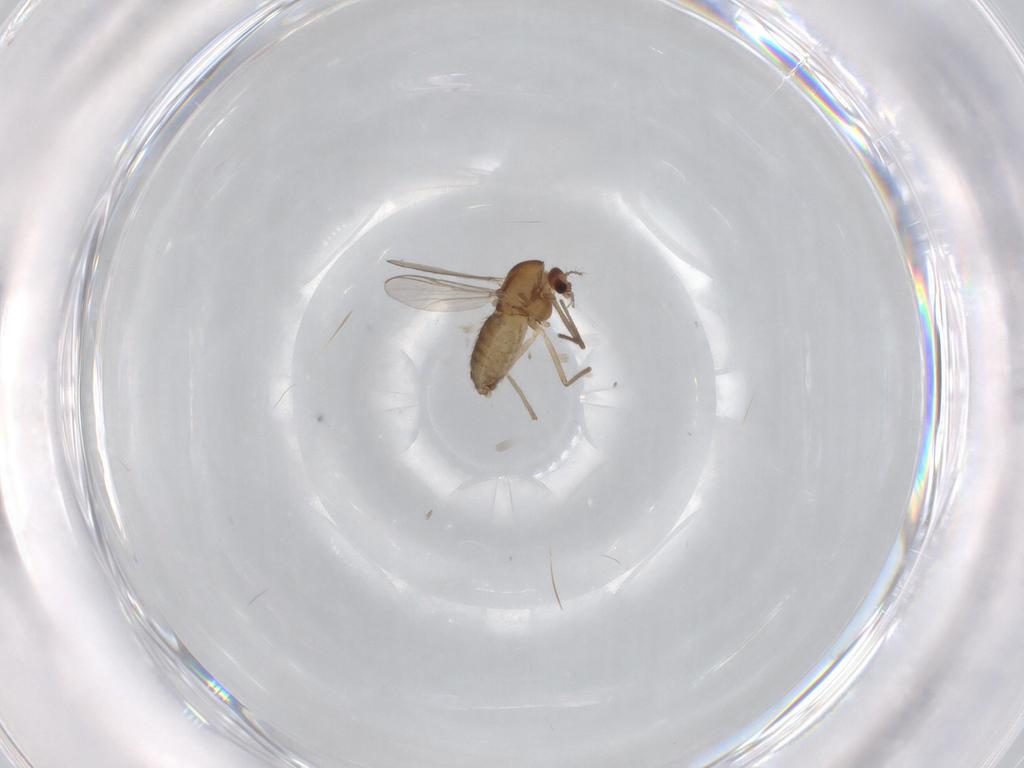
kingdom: Animalia
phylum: Arthropoda
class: Insecta
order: Diptera
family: Chironomidae
